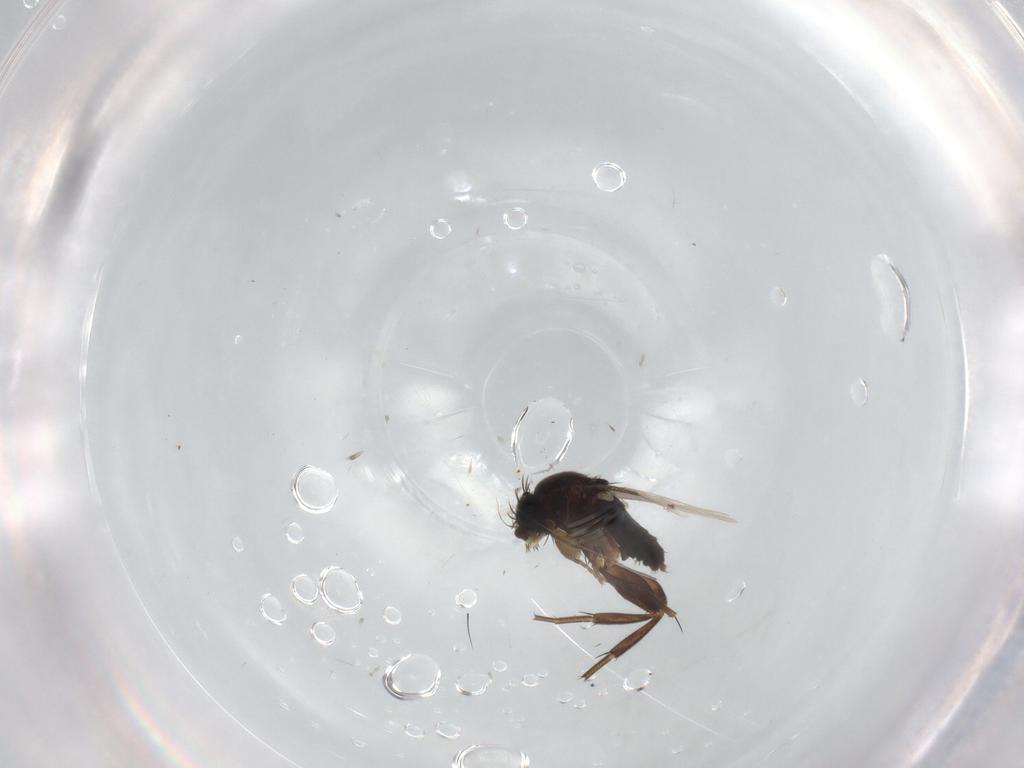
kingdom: Animalia
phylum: Arthropoda
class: Insecta
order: Diptera
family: Phoridae
